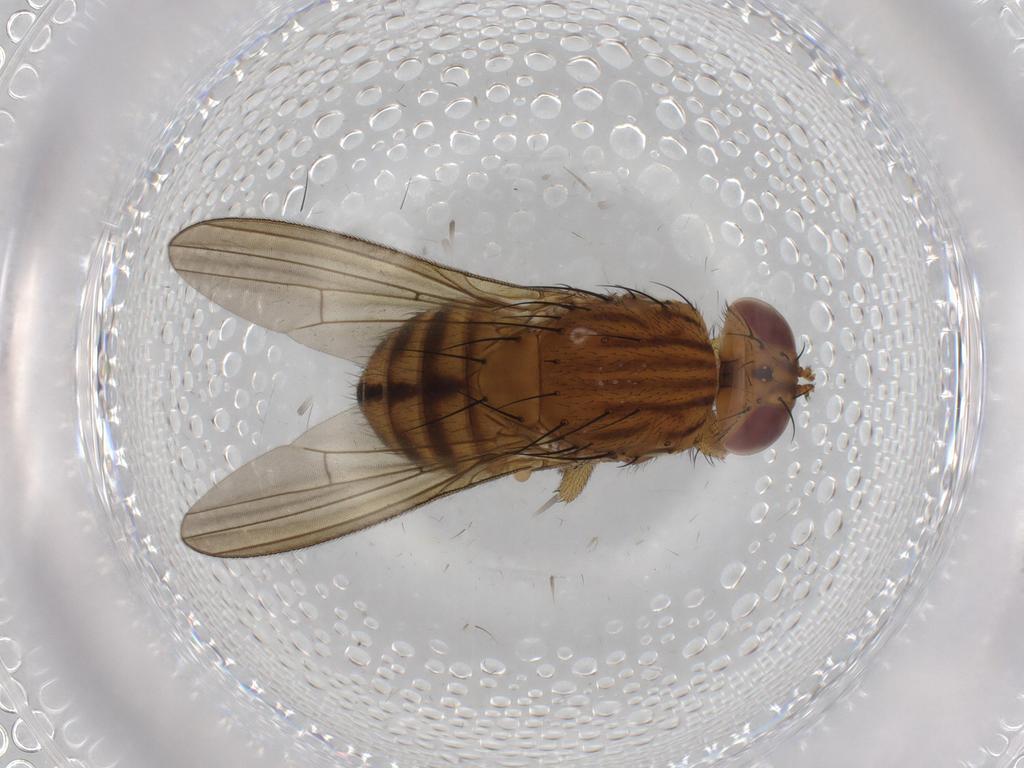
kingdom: Animalia
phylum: Arthropoda
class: Insecta
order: Diptera
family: Chironomidae
